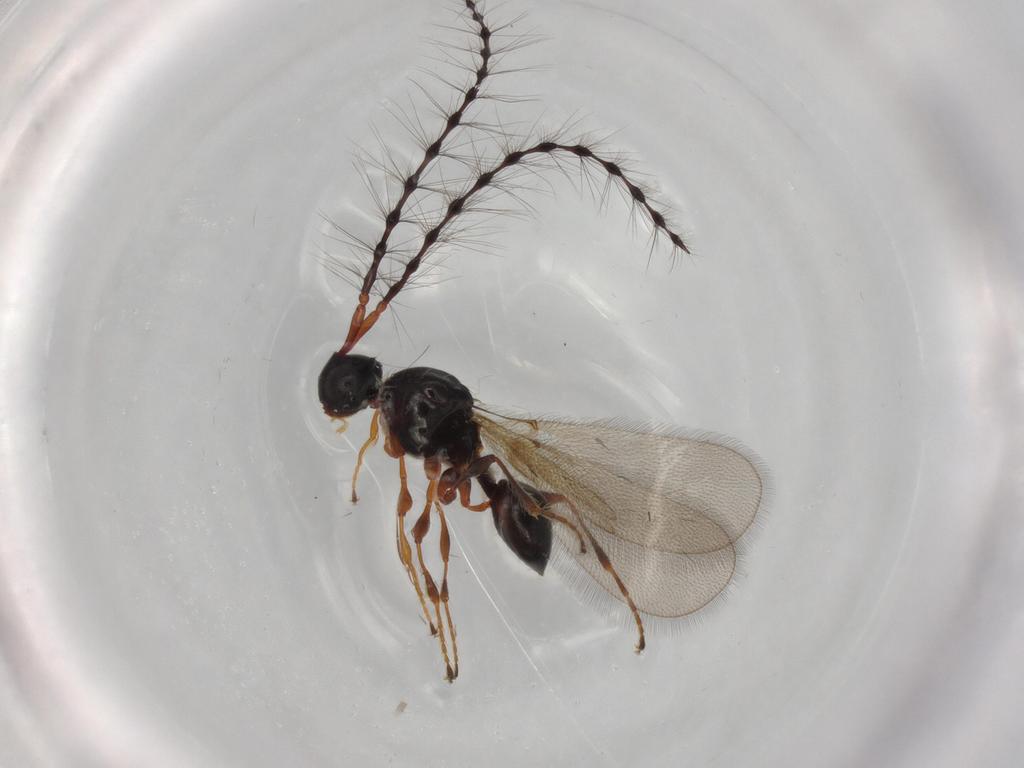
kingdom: Animalia
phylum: Arthropoda
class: Insecta
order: Hymenoptera
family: Diapriidae
